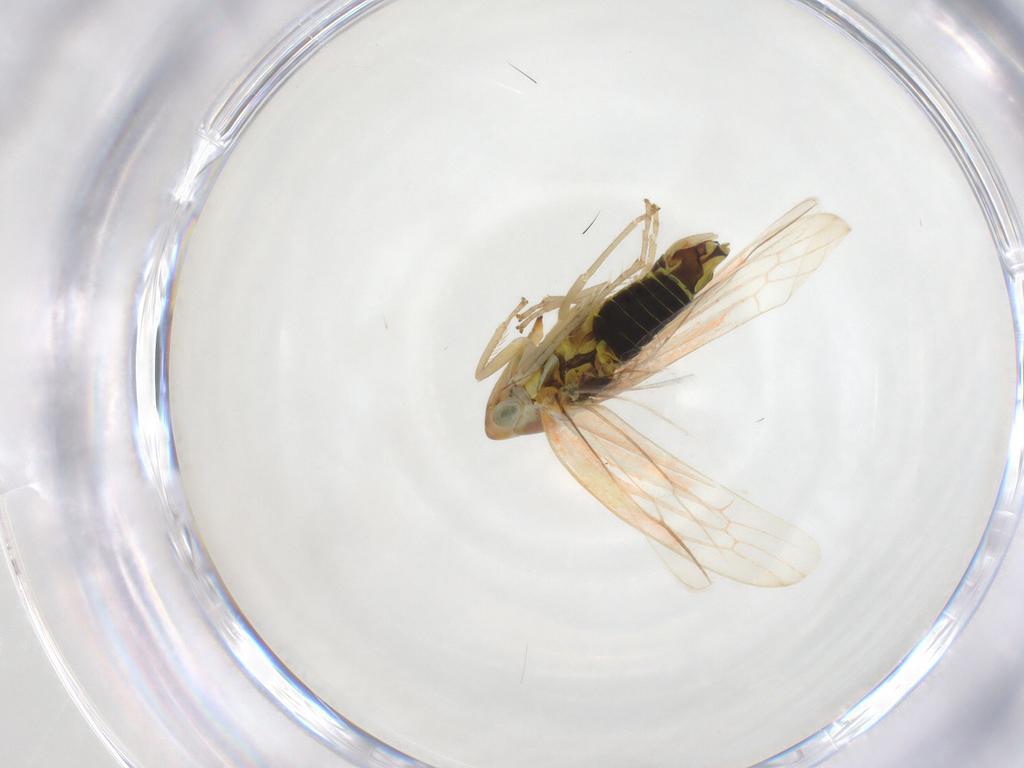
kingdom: Animalia
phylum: Arthropoda
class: Insecta
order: Hemiptera
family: Cicadellidae
